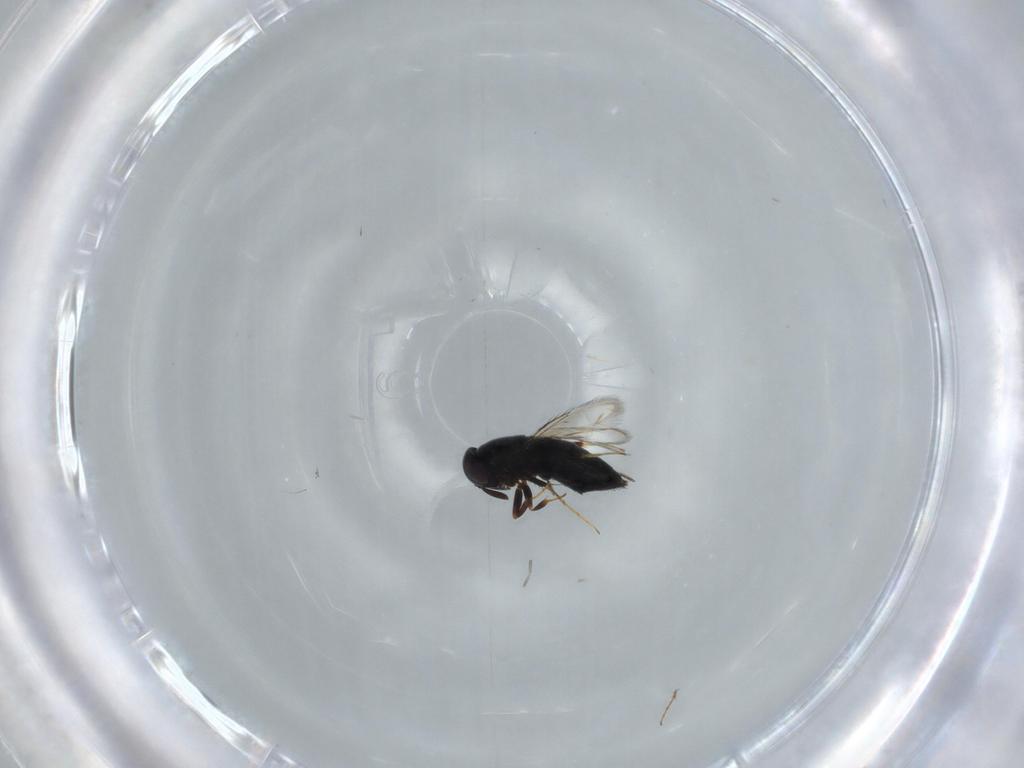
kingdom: Animalia
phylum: Arthropoda
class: Insecta
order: Hymenoptera
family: Signiphoridae
